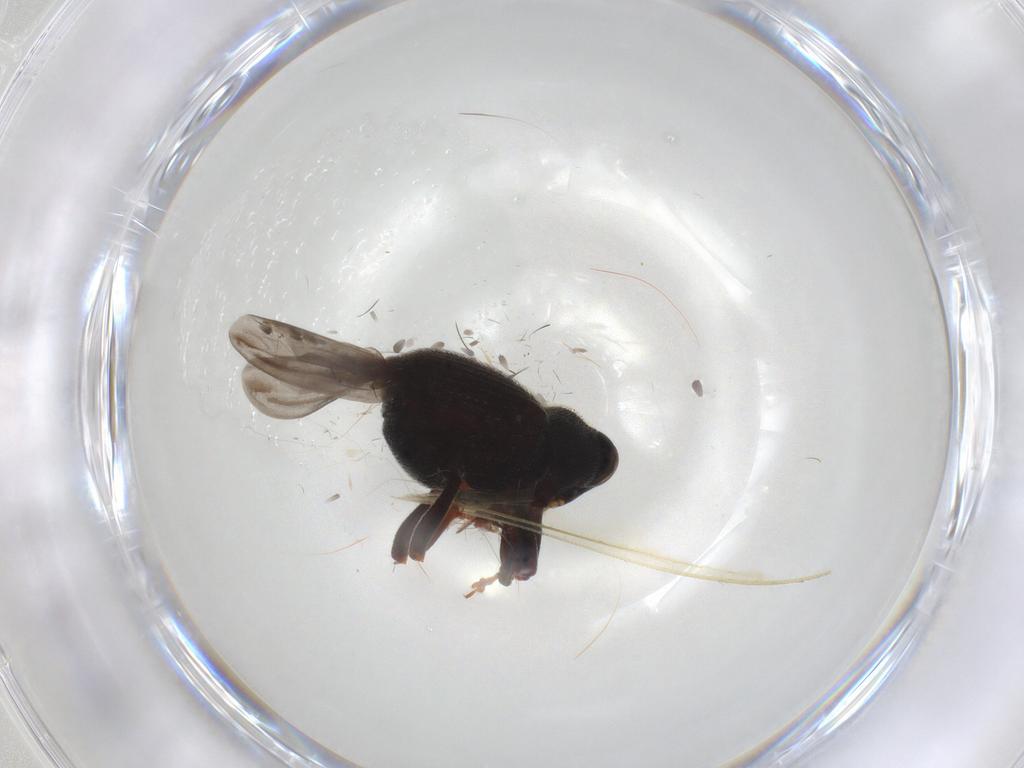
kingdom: Animalia
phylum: Arthropoda
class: Insecta
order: Coleoptera
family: Ptilodactylidae
